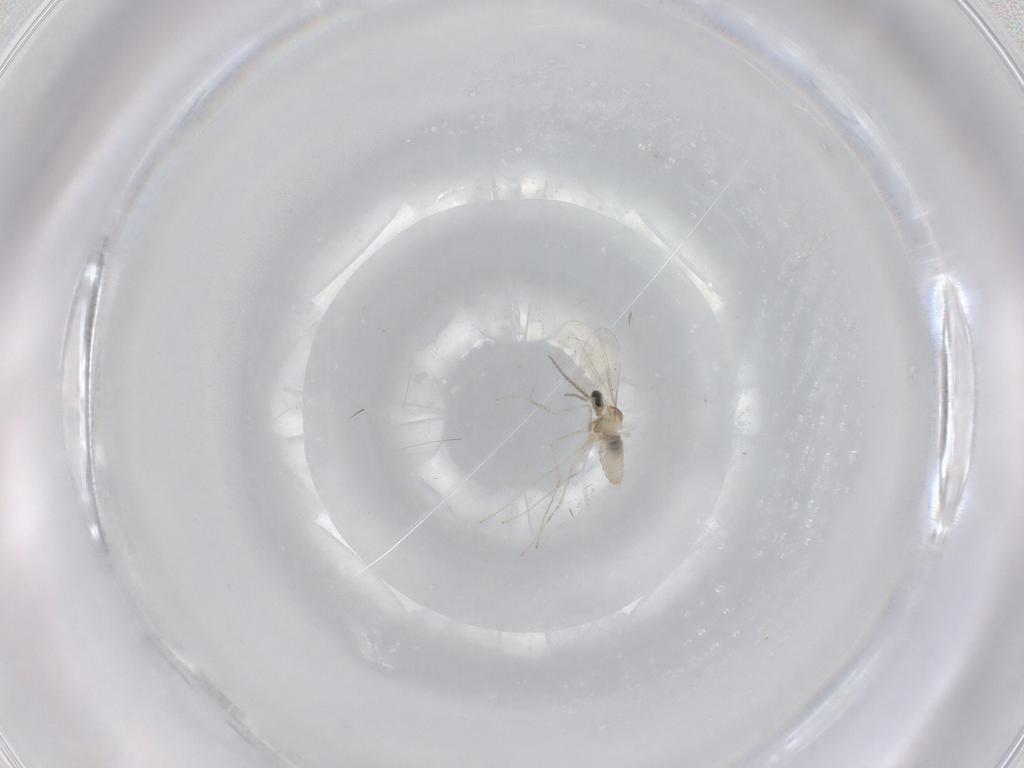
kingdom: Animalia
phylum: Arthropoda
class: Insecta
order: Diptera
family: Cecidomyiidae
